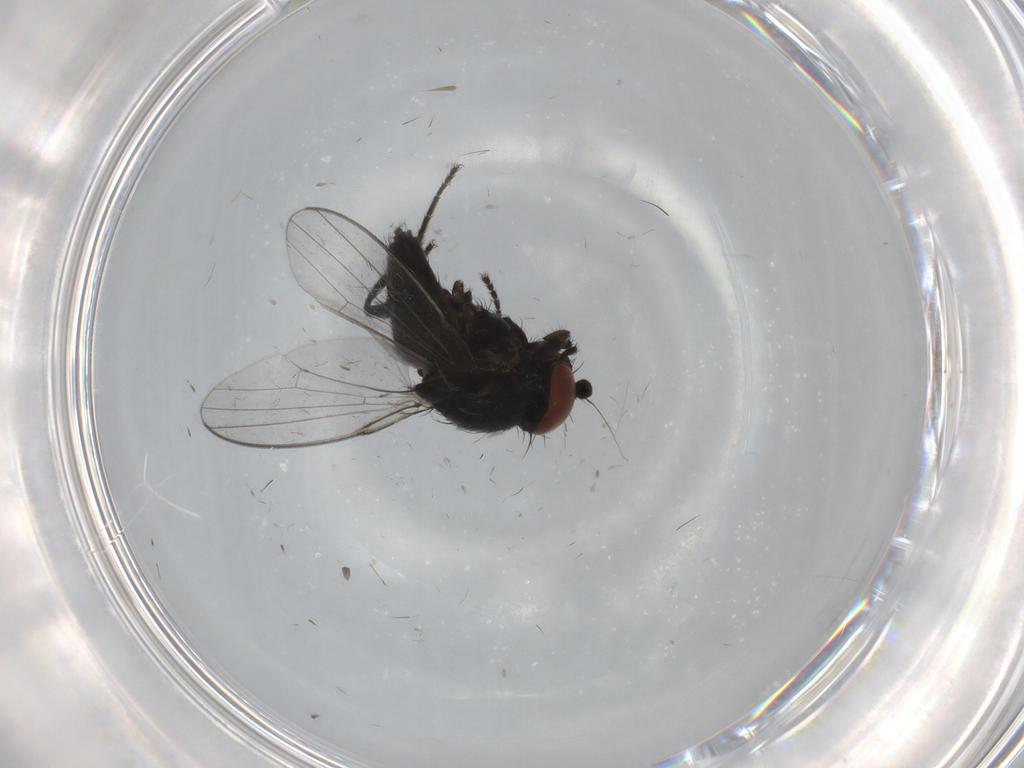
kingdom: Animalia
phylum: Arthropoda
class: Insecta
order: Diptera
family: Milichiidae
